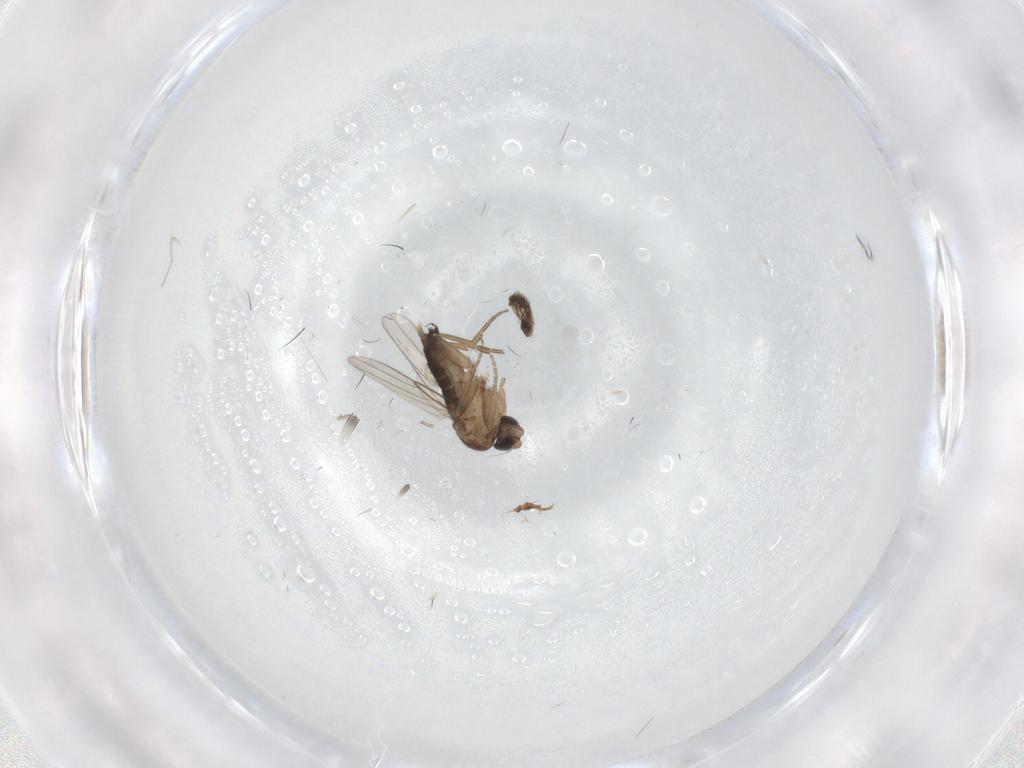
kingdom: Animalia
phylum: Arthropoda
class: Insecta
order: Diptera
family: Chironomidae
